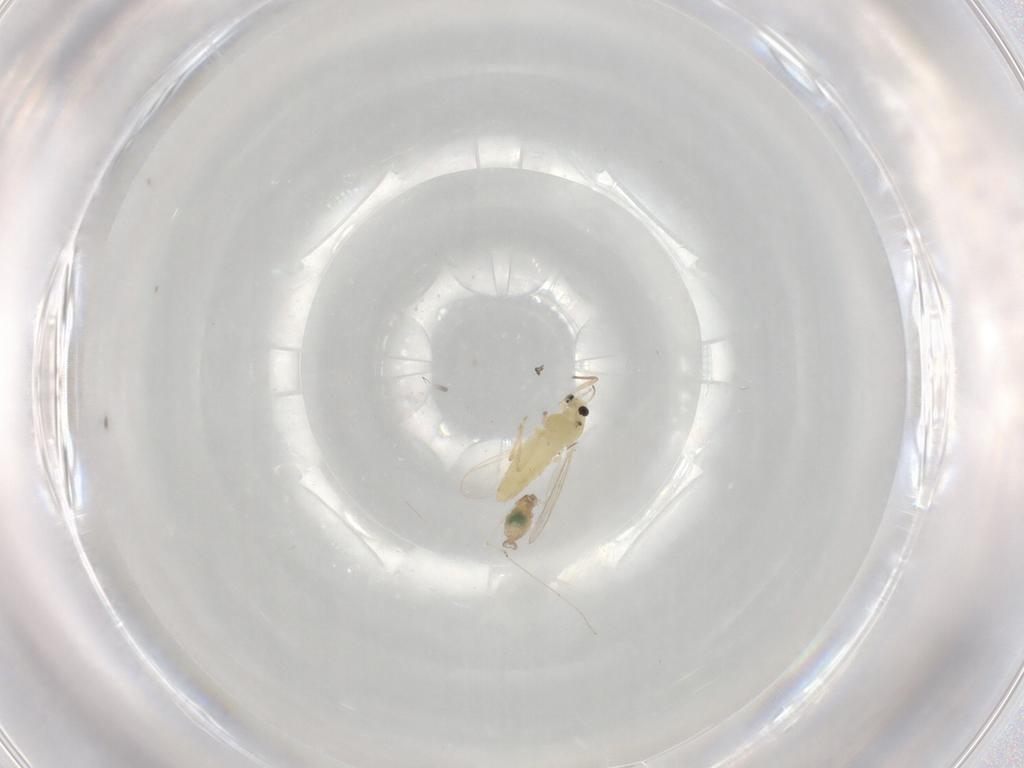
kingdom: Animalia
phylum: Arthropoda
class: Insecta
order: Diptera
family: Chironomidae
